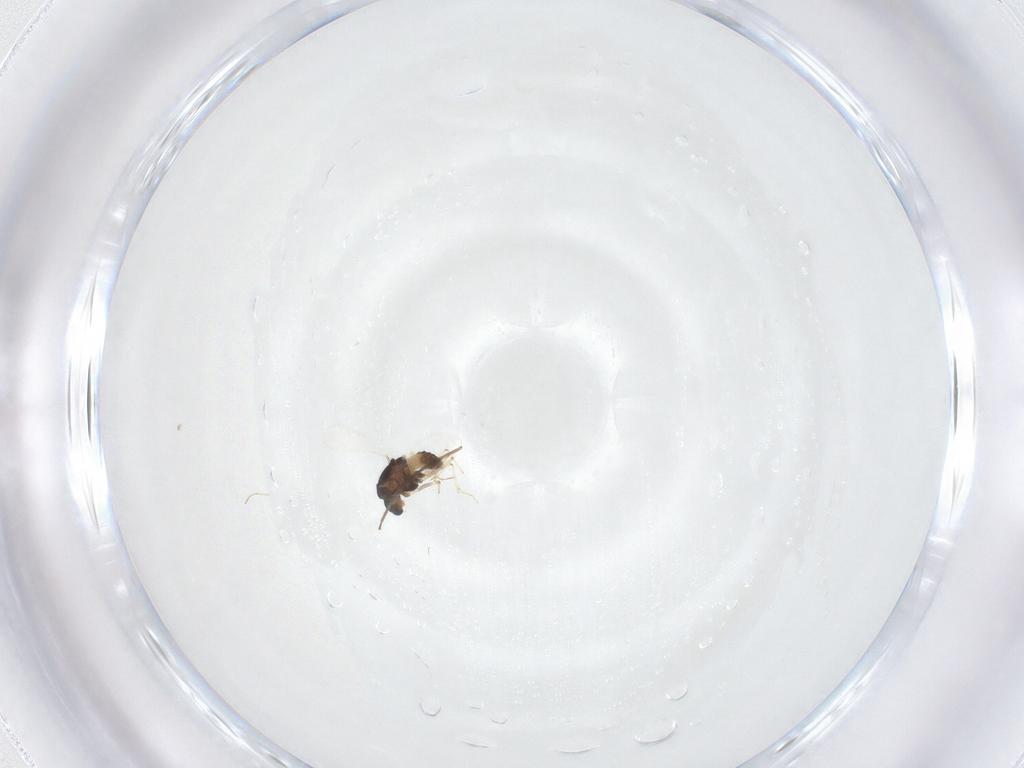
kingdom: Animalia
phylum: Arthropoda
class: Insecta
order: Diptera
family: Chironomidae
